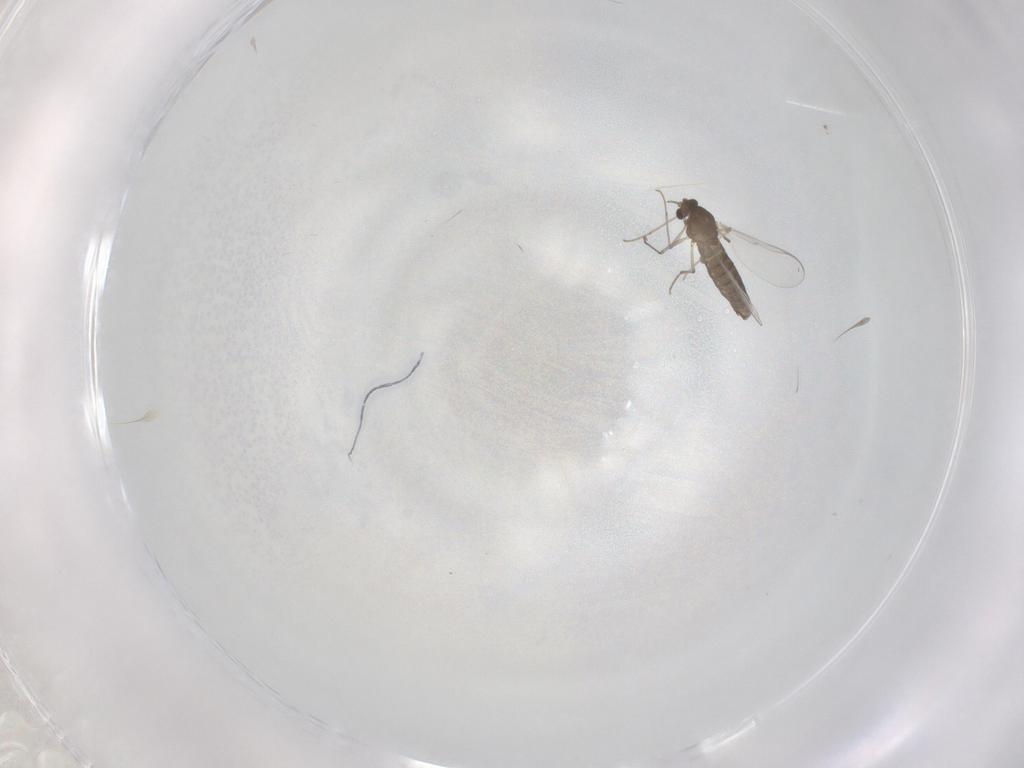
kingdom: Animalia
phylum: Arthropoda
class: Insecta
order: Diptera
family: Chironomidae
